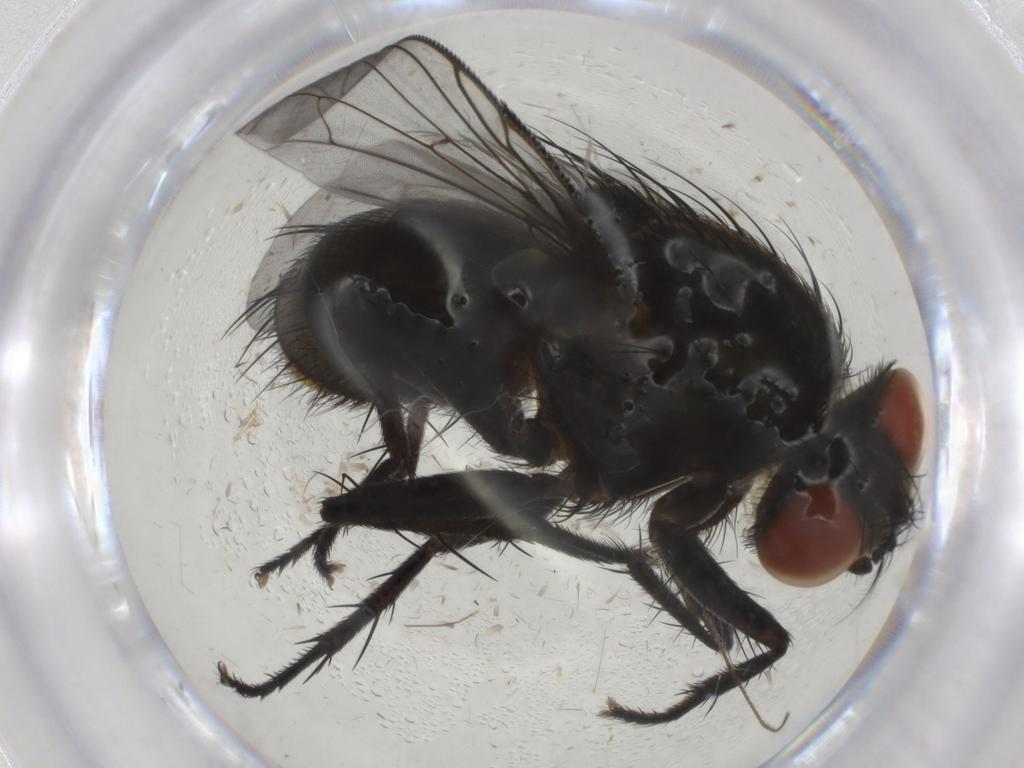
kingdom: Animalia
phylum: Arthropoda
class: Insecta
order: Diptera
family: Sarcophagidae
